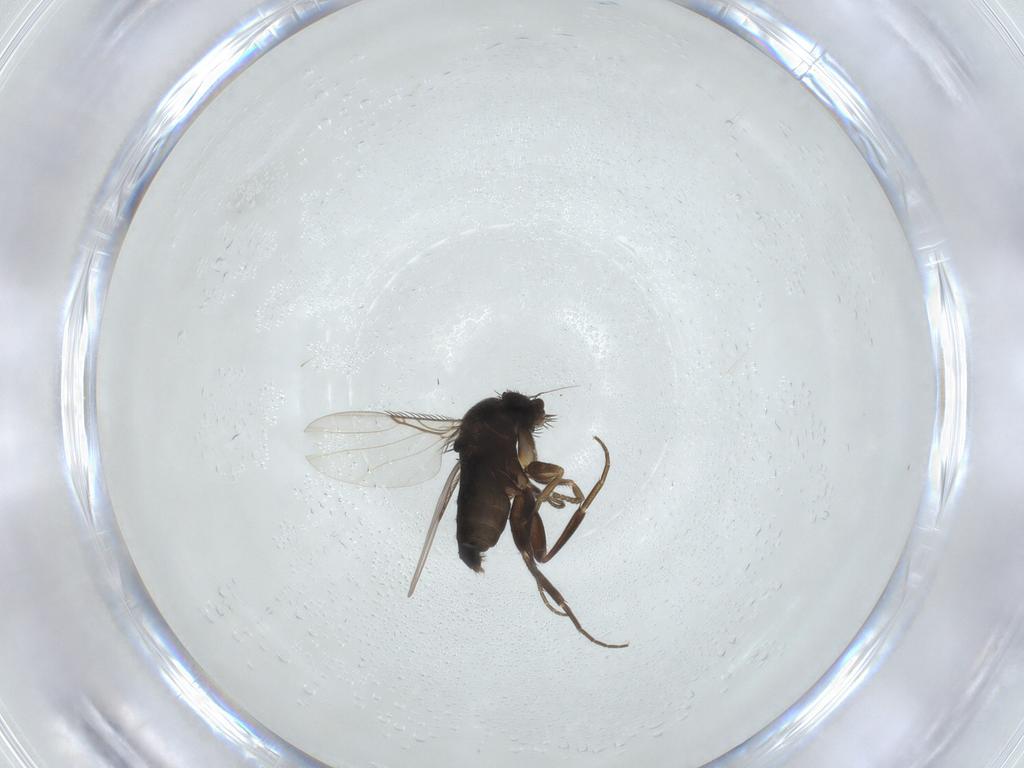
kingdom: Animalia
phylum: Arthropoda
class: Insecta
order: Diptera
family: Phoridae
